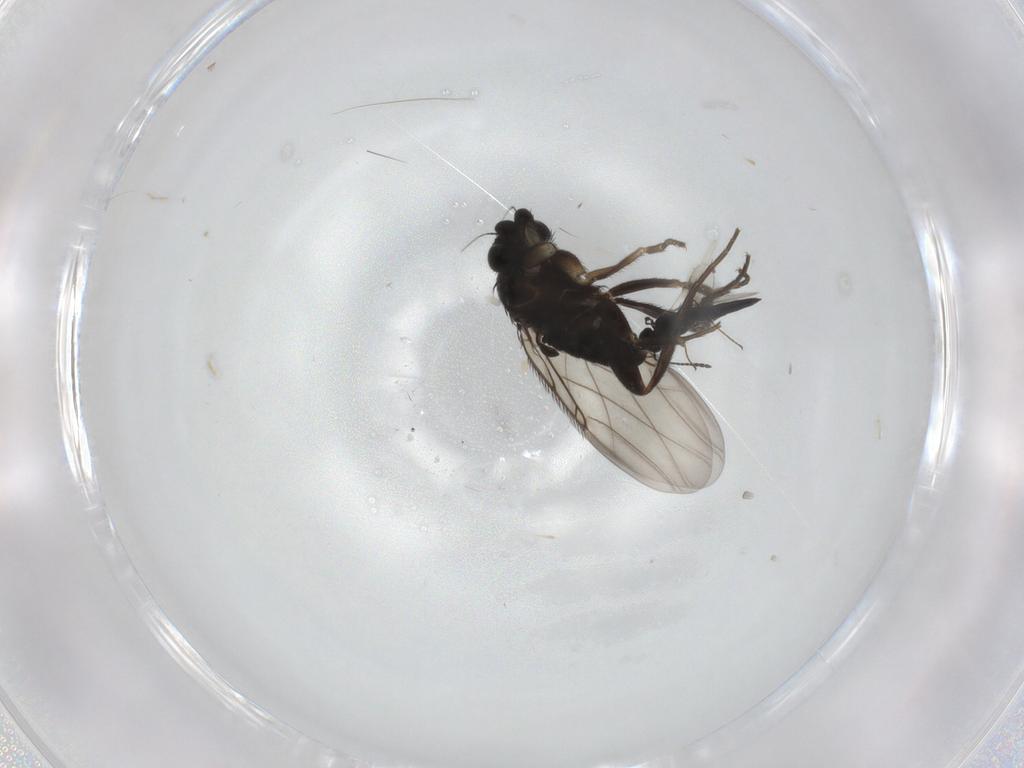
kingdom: Animalia
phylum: Arthropoda
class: Insecta
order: Diptera
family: Phoridae
